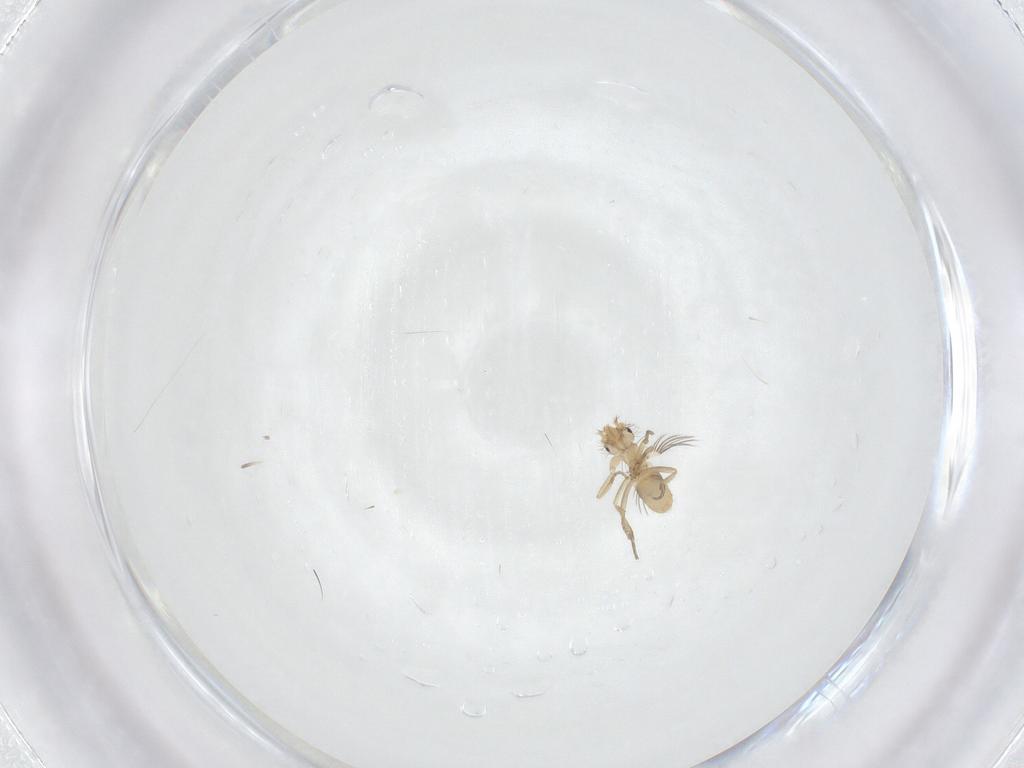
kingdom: Animalia
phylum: Arthropoda
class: Insecta
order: Diptera
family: Phoridae
